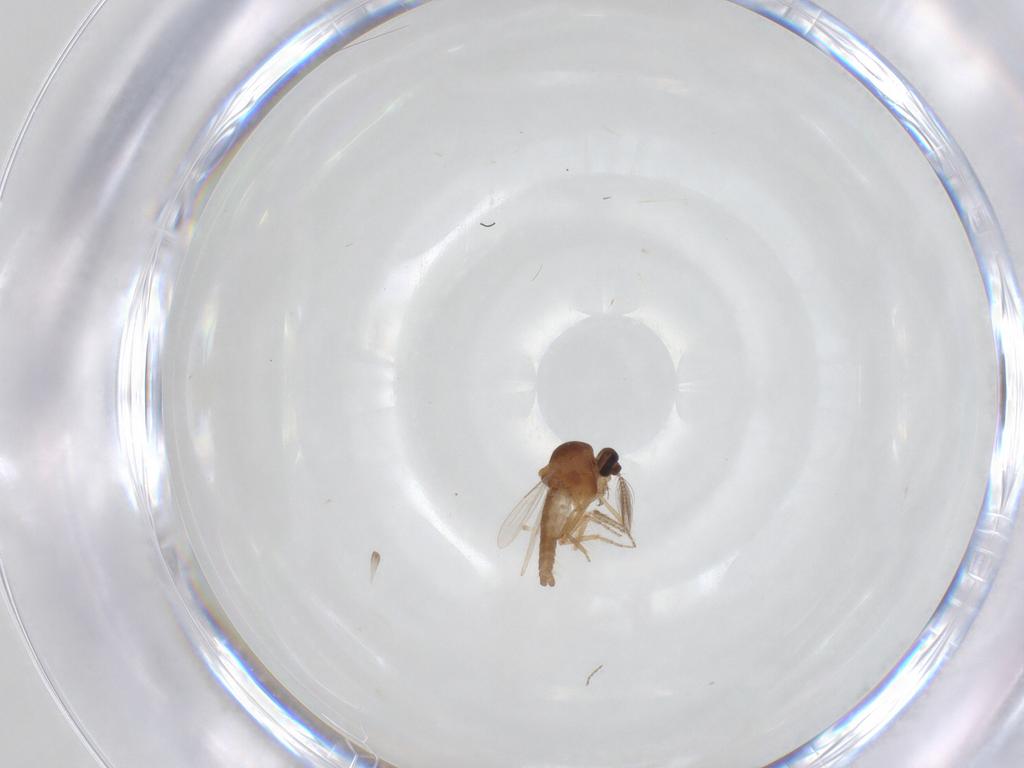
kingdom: Animalia
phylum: Arthropoda
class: Insecta
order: Diptera
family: Ceratopogonidae
